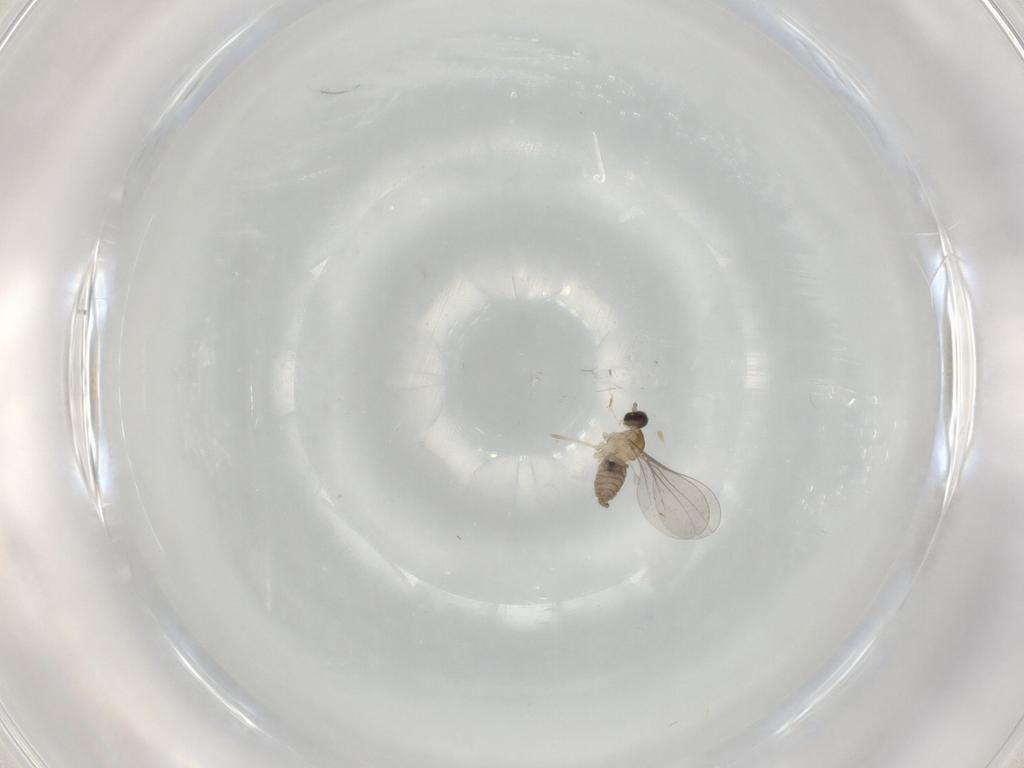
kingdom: Animalia
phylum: Arthropoda
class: Insecta
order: Diptera
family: Cecidomyiidae
